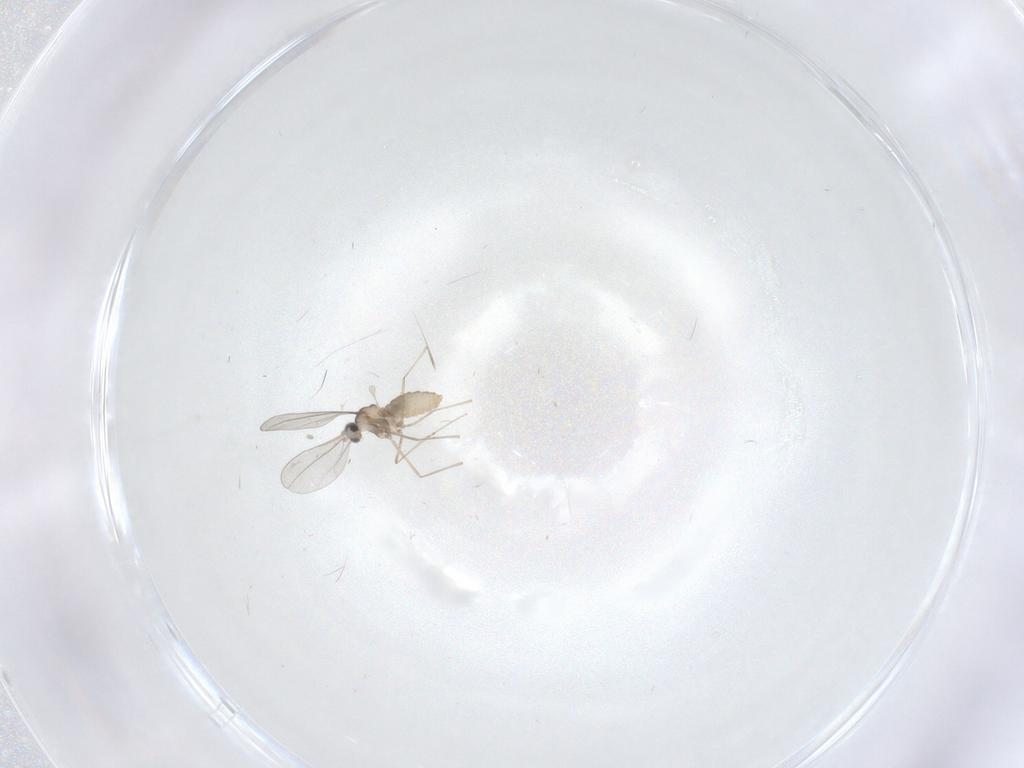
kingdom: Animalia
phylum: Arthropoda
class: Insecta
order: Diptera
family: Cecidomyiidae
